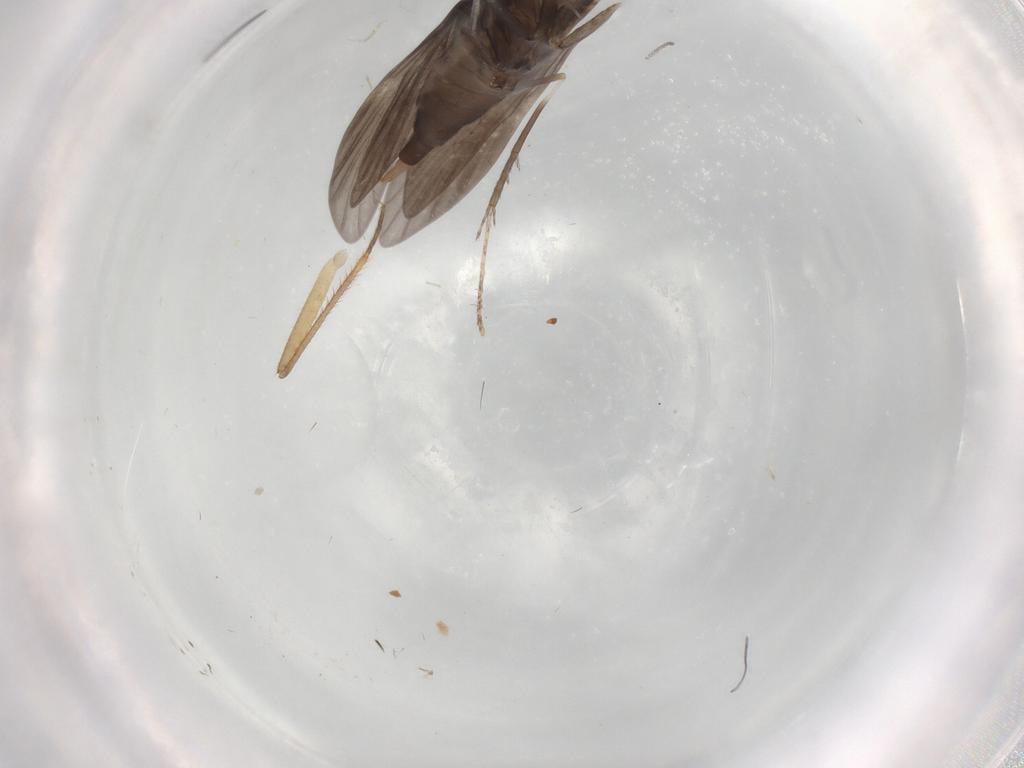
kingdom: Animalia
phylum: Arthropoda
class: Insecta
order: Trichoptera
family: Xiphocentronidae
